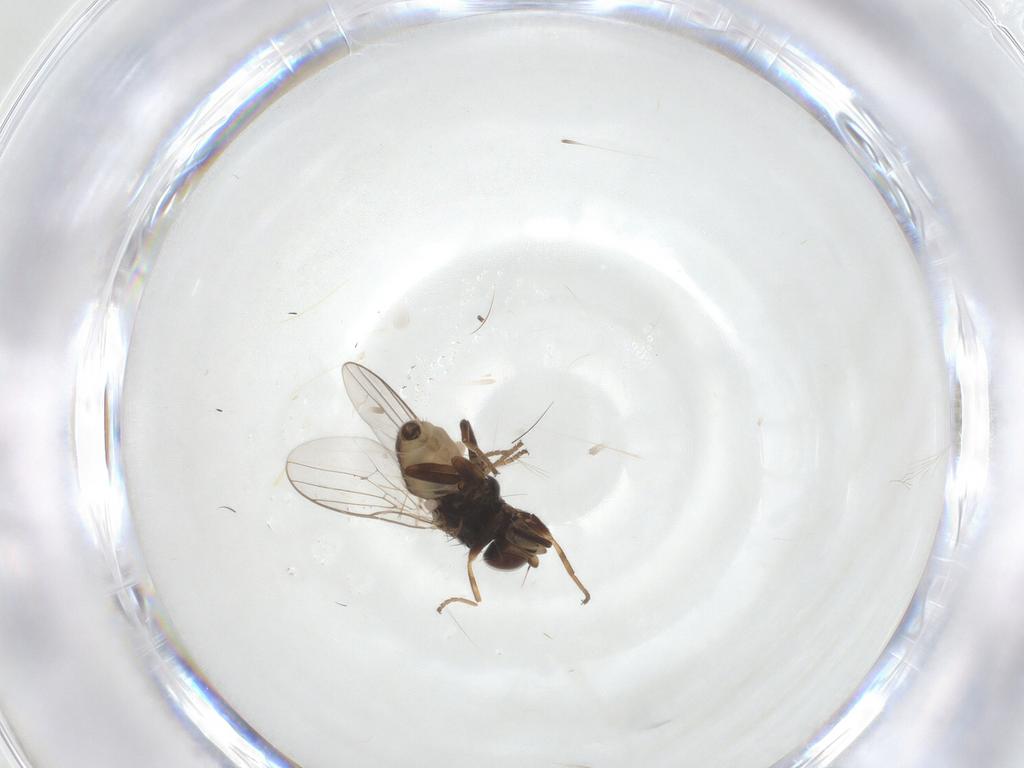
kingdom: Animalia
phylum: Arthropoda
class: Insecta
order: Diptera
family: Chloropidae
